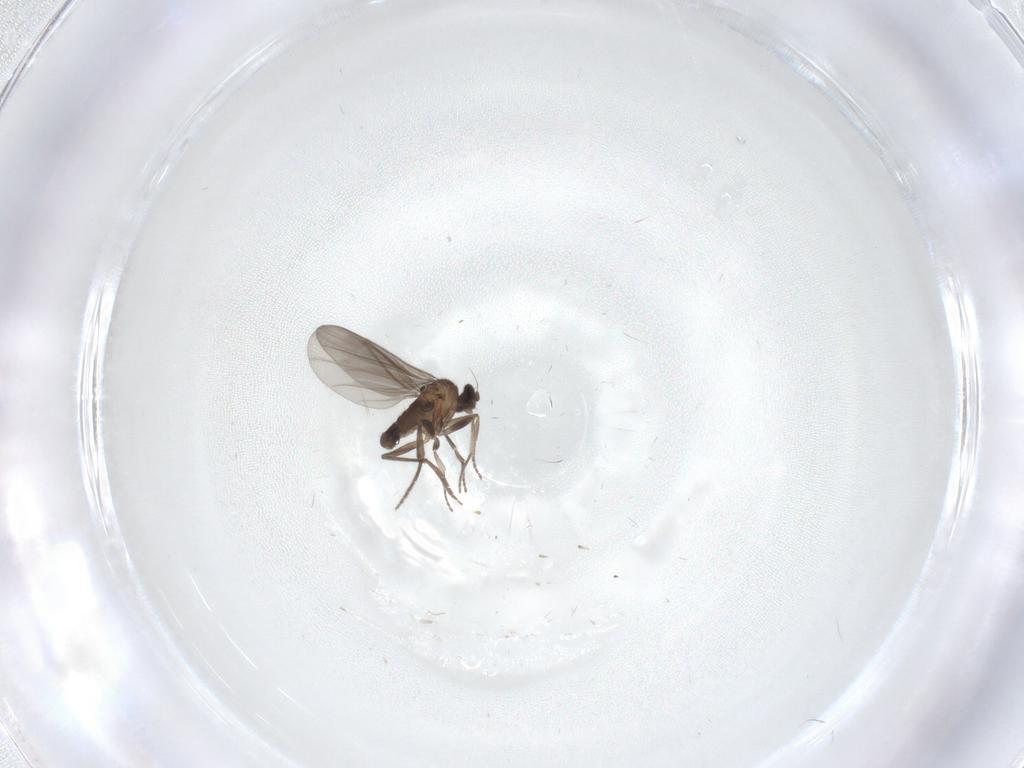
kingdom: Animalia
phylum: Arthropoda
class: Insecta
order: Diptera
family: Phoridae
